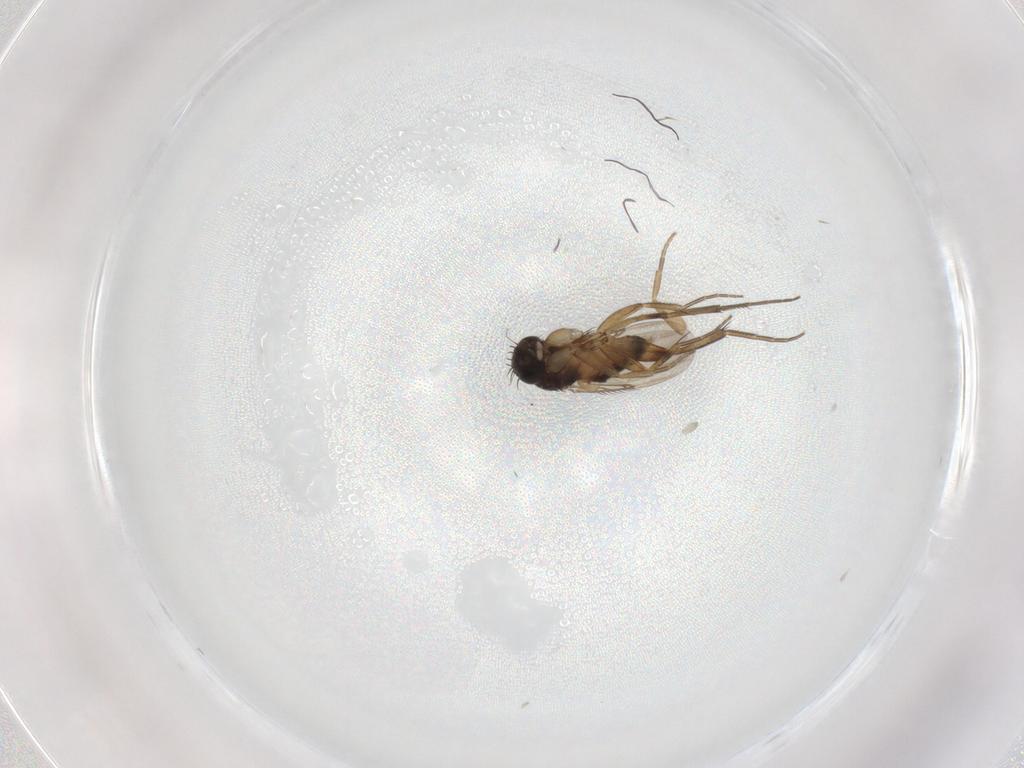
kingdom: Animalia
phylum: Arthropoda
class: Insecta
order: Diptera
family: Phoridae
